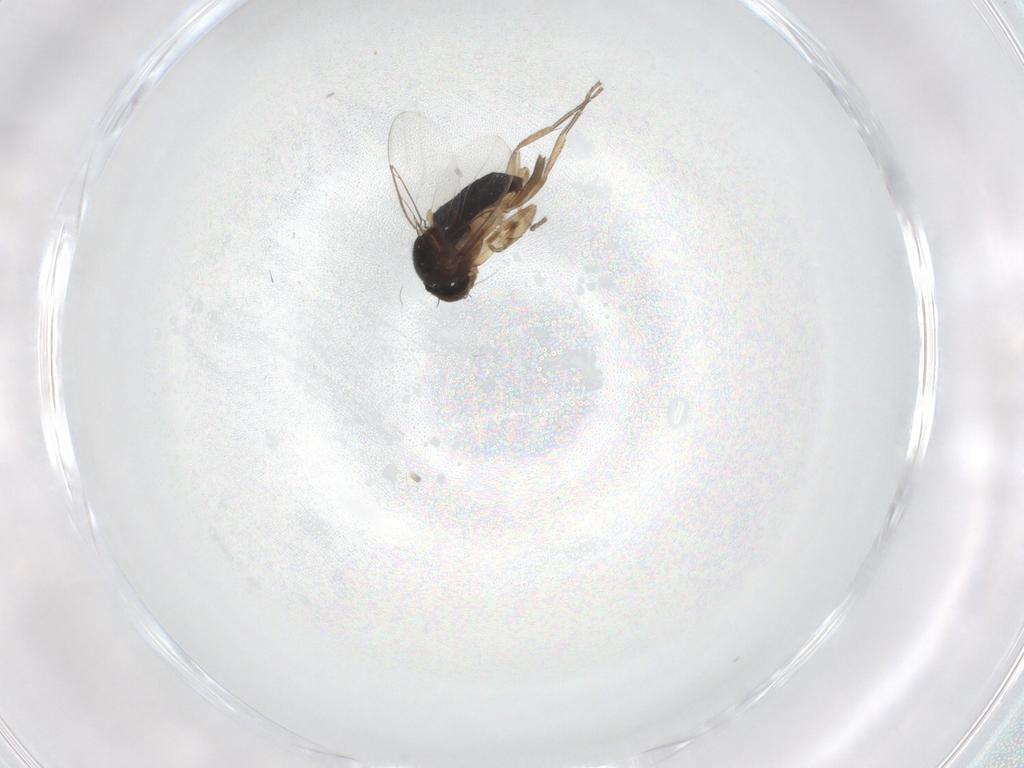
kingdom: Animalia
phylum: Arthropoda
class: Insecta
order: Diptera
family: Phoridae
